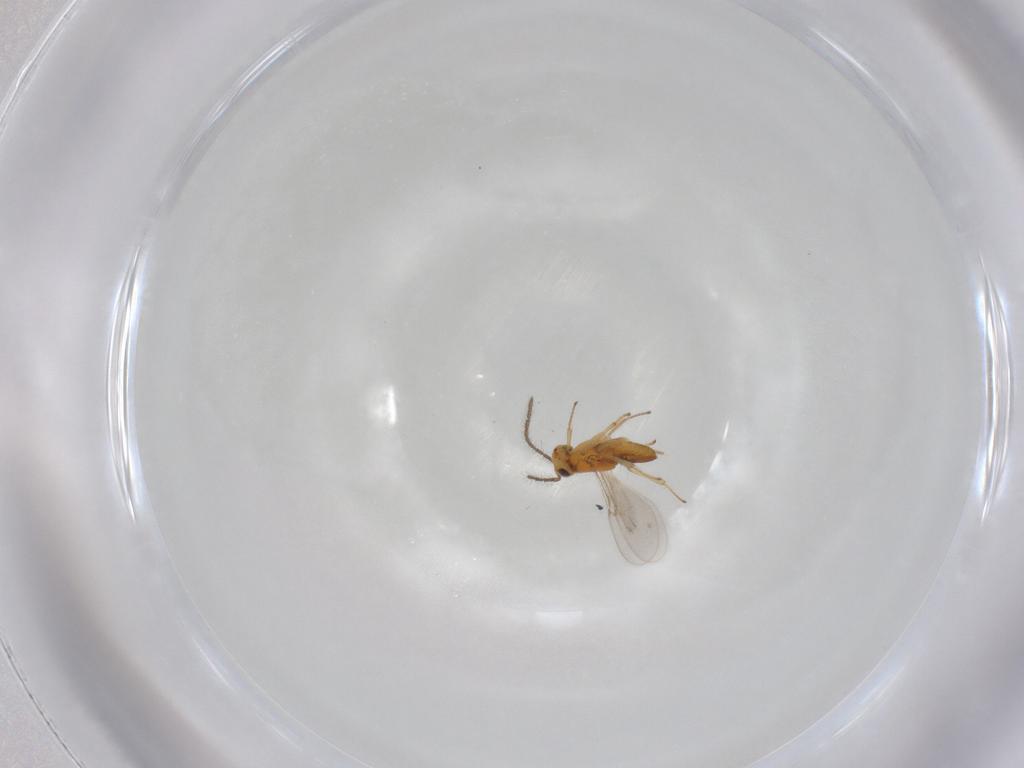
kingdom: Animalia
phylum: Arthropoda
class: Insecta
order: Hymenoptera
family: Encyrtidae
